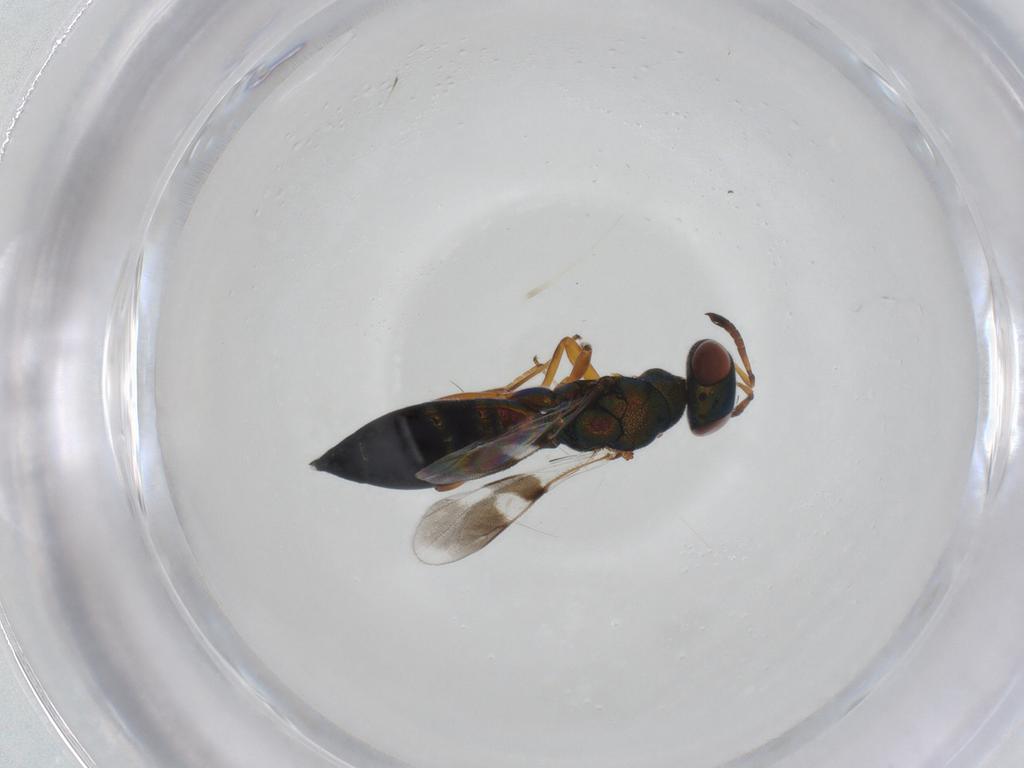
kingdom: Animalia
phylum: Arthropoda
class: Insecta
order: Hymenoptera
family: Cleonyminae
